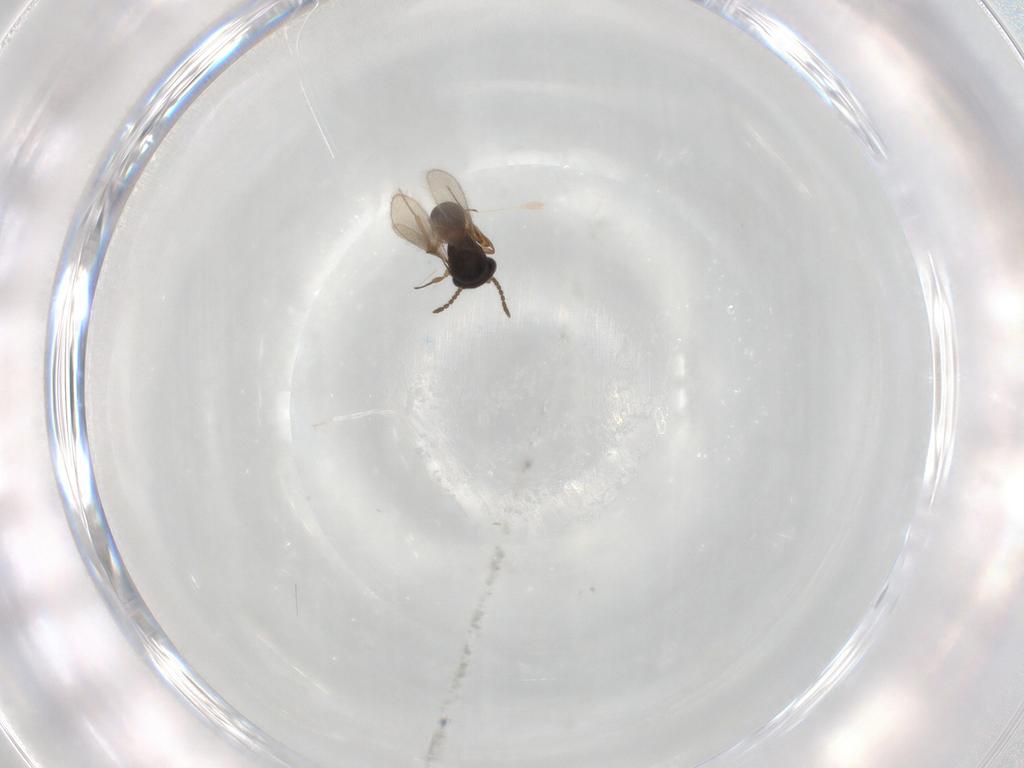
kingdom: Animalia
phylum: Arthropoda
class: Insecta
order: Hymenoptera
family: Scelionidae
